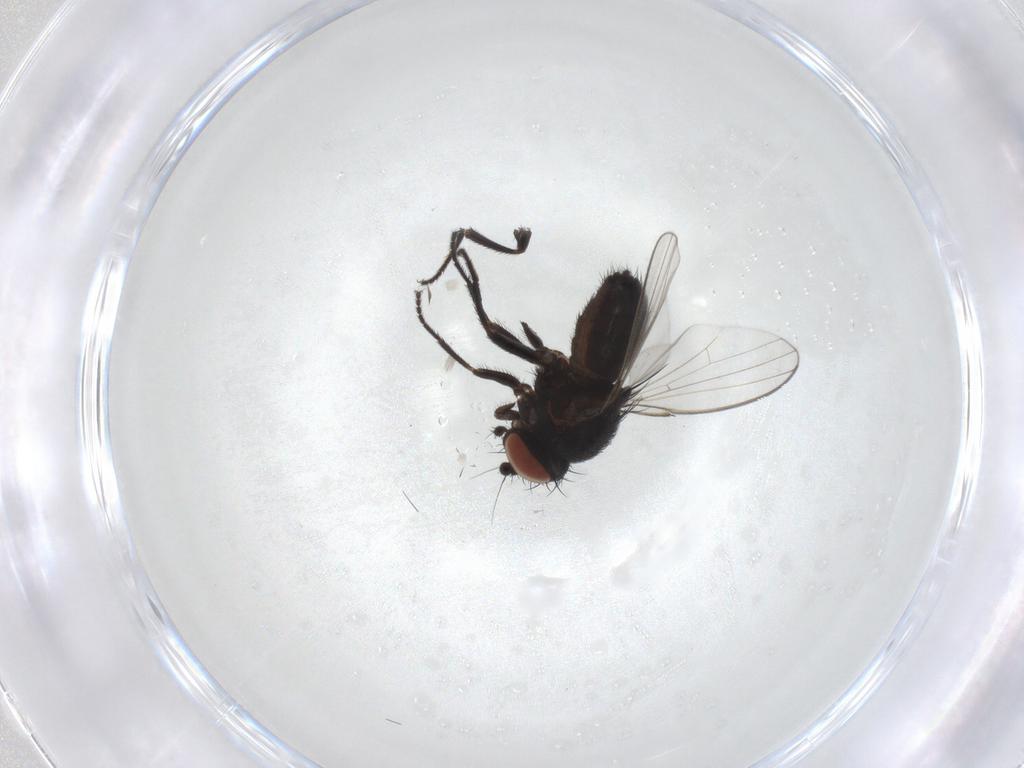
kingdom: Animalia
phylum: Arthropoda
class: Insecta
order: Diptera
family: Milichiidae
